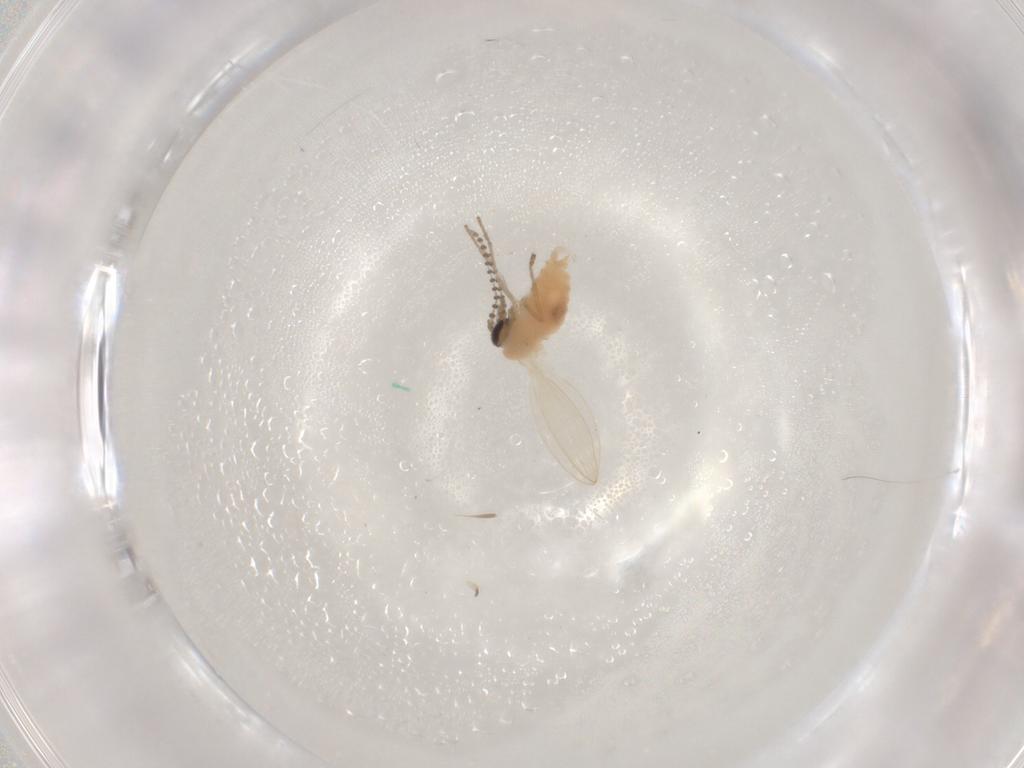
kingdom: Animalia
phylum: Arthropoda
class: Insecta
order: Diptera
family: Psychodidae
